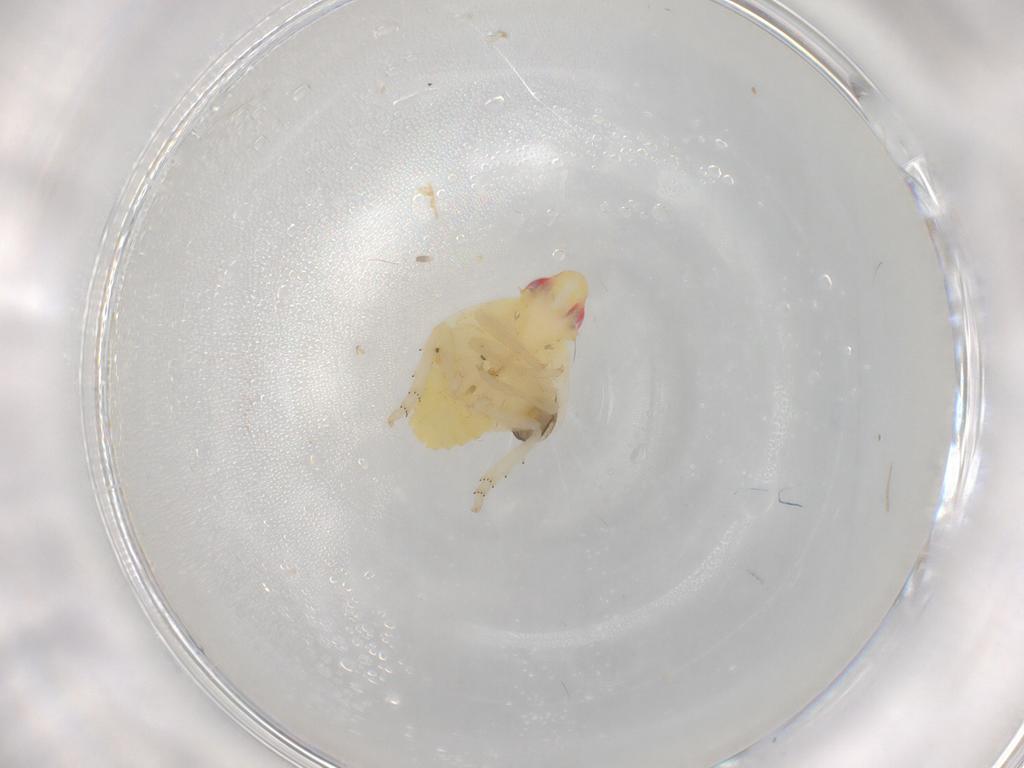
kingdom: Animalia
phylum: Arthropoda
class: Insecta
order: Hemiptera
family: Tropiduchidae
